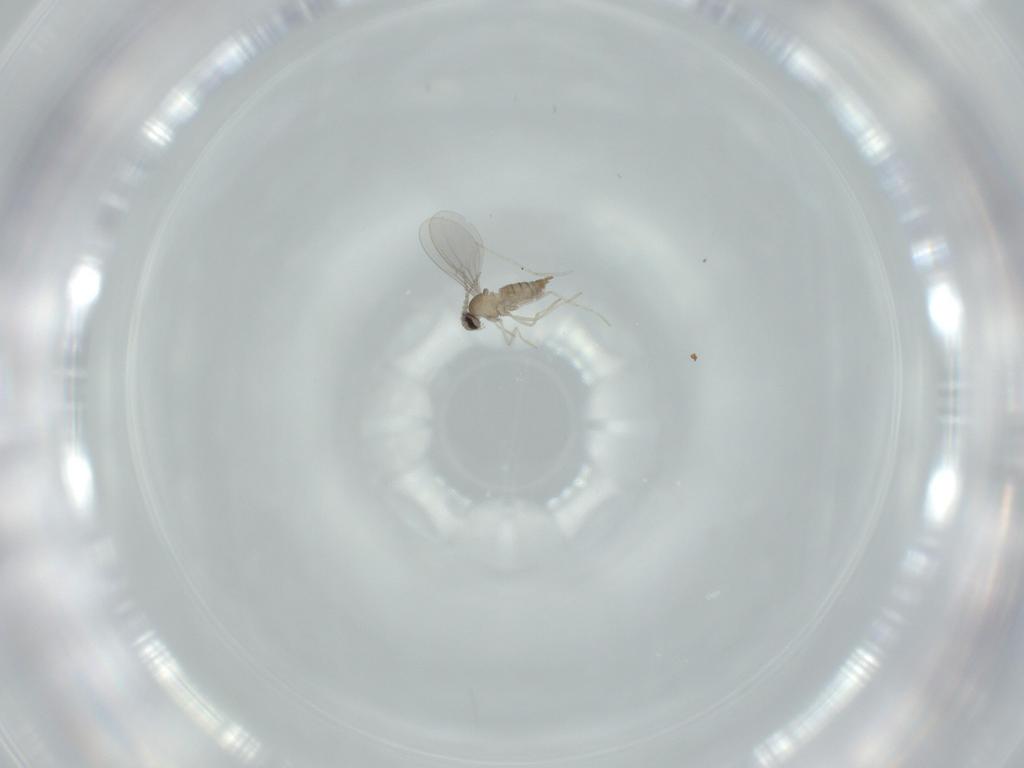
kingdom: Animalia
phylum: Arthropoda
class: Insecta
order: Diptera
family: Cecidomyiidae
